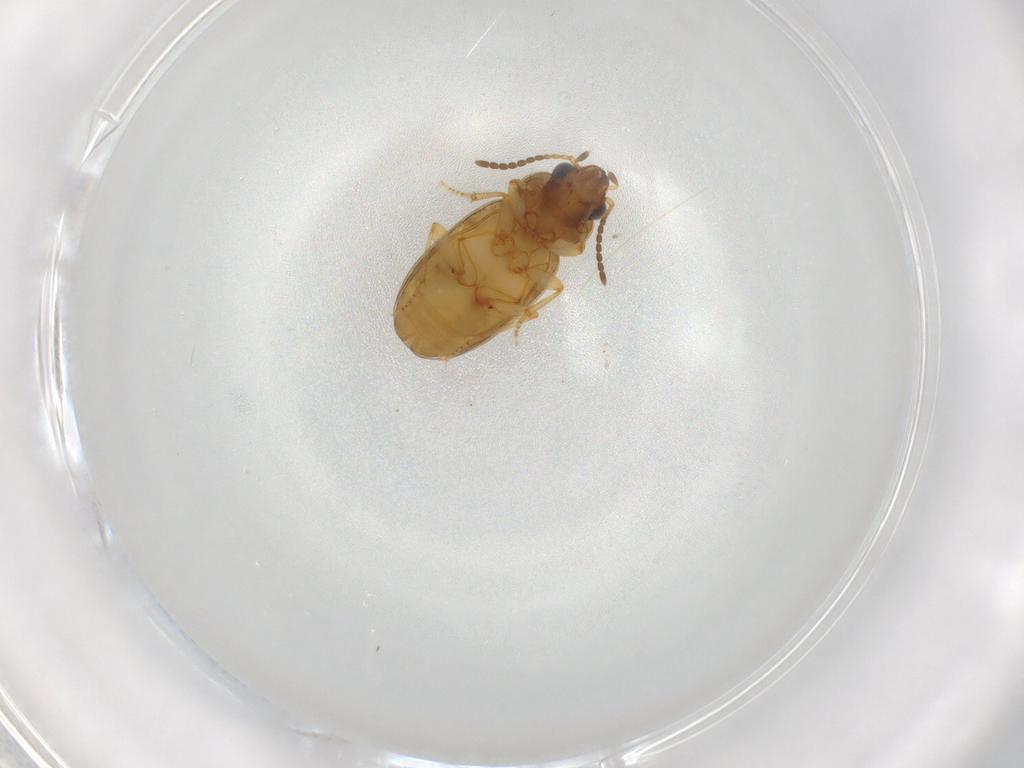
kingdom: Animalia
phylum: Arthropoda
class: Insecta
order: Coleoptera
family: Carabidae
